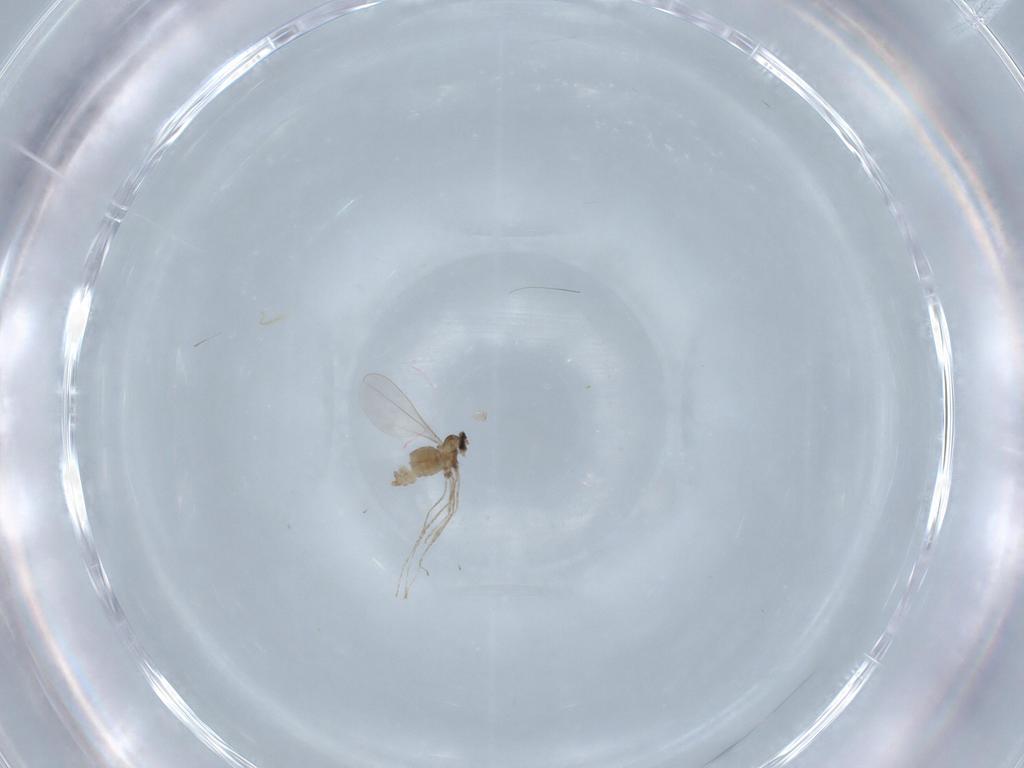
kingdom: Animalia
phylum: Arthropoda
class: Insecta
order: Diptera
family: Cecidomyiidae
